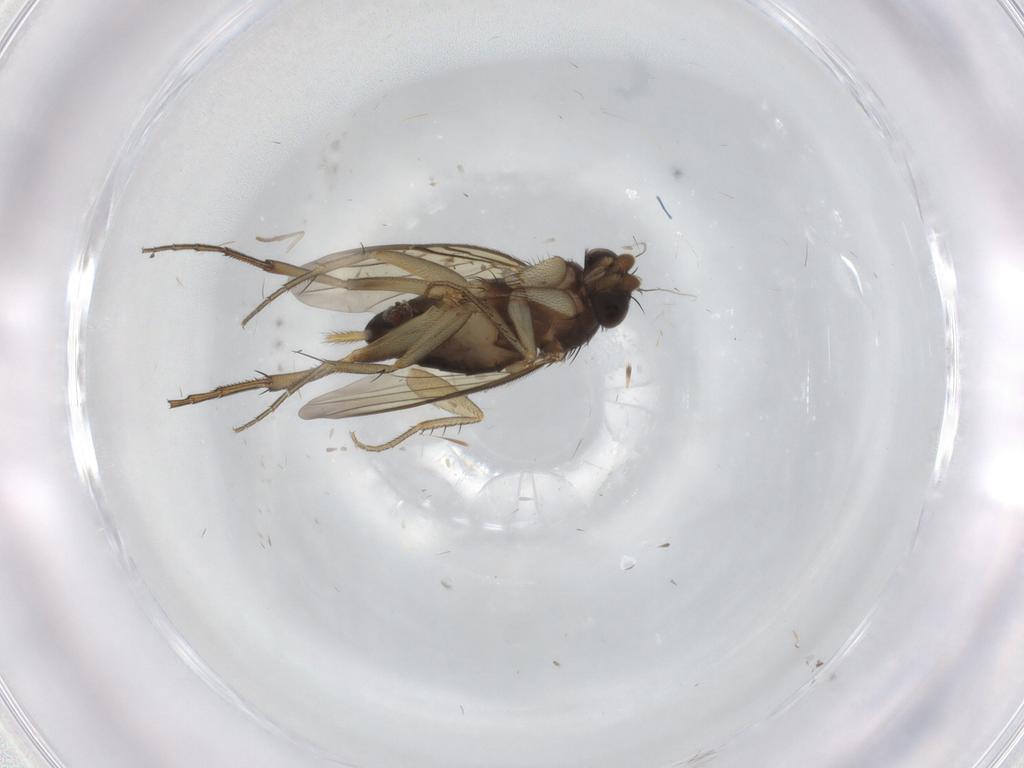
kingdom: Animalia
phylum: Arthropoda
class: Insecta
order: Diptera
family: Phoridae
